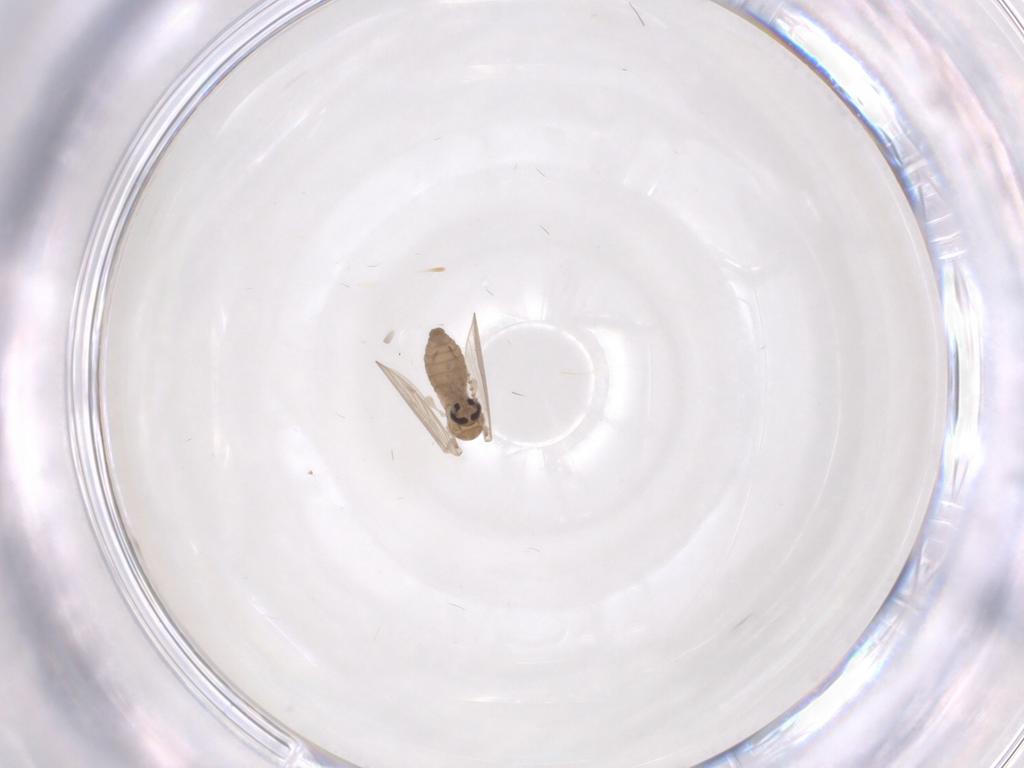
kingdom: Animalia
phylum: Arthropoda
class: Insecta
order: Diptera
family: Psychodidae
